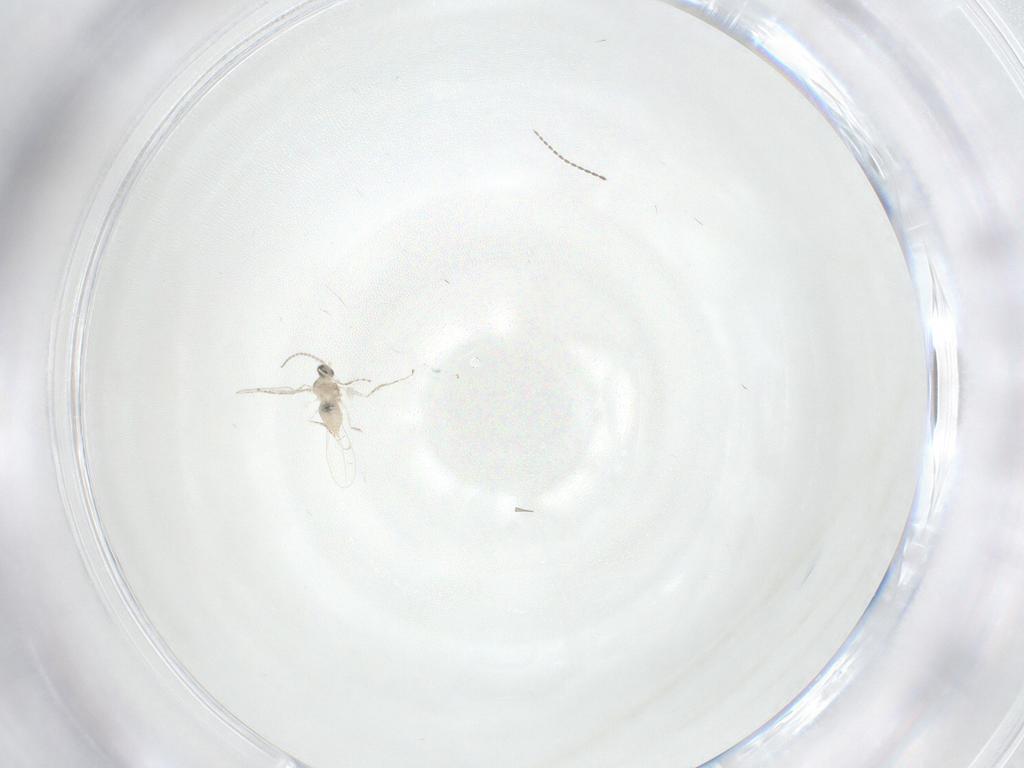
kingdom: Animalia
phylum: Arthropoda
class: Insecta
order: Diptera
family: Cecidomyiidae
